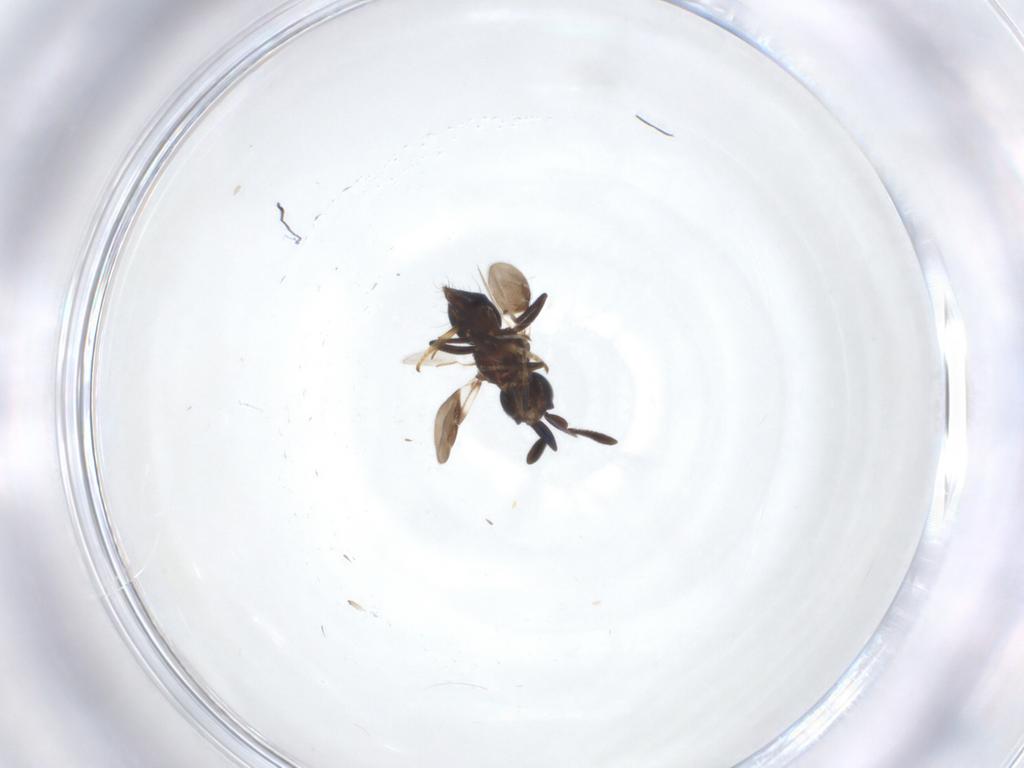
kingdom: Animalia
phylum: Arthropoda
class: Insecta
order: Hymenoptera
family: Encyrtidae
